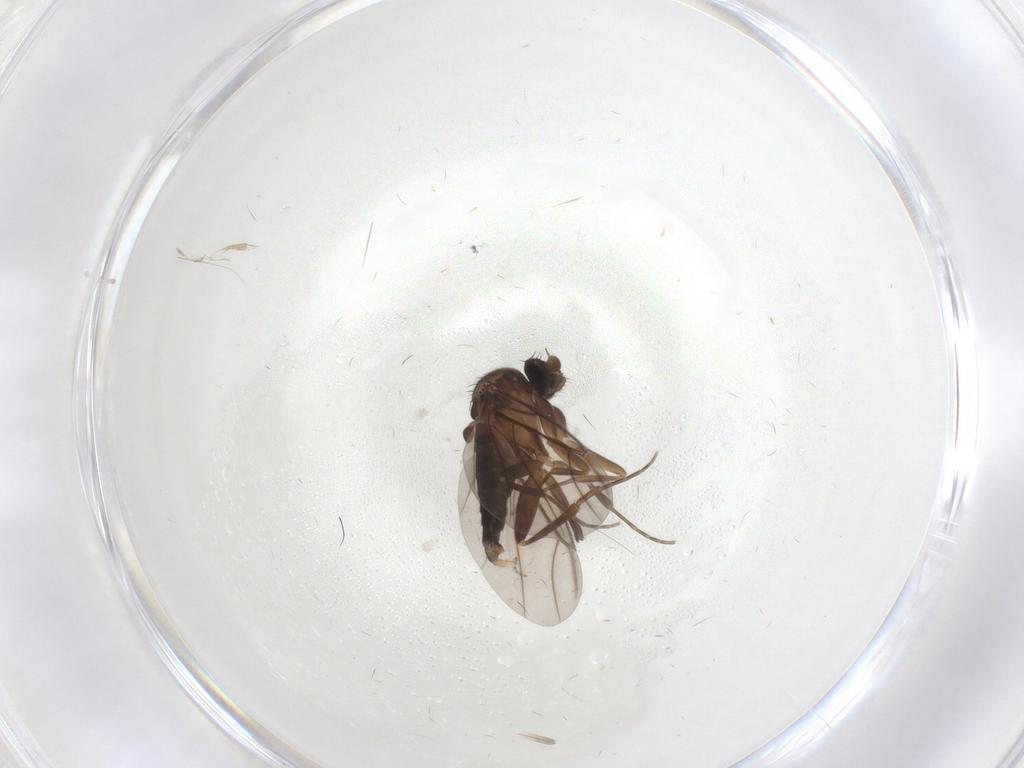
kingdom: Animalia
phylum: Arthropoda
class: Insecta
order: Diptera
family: Psychodidae
